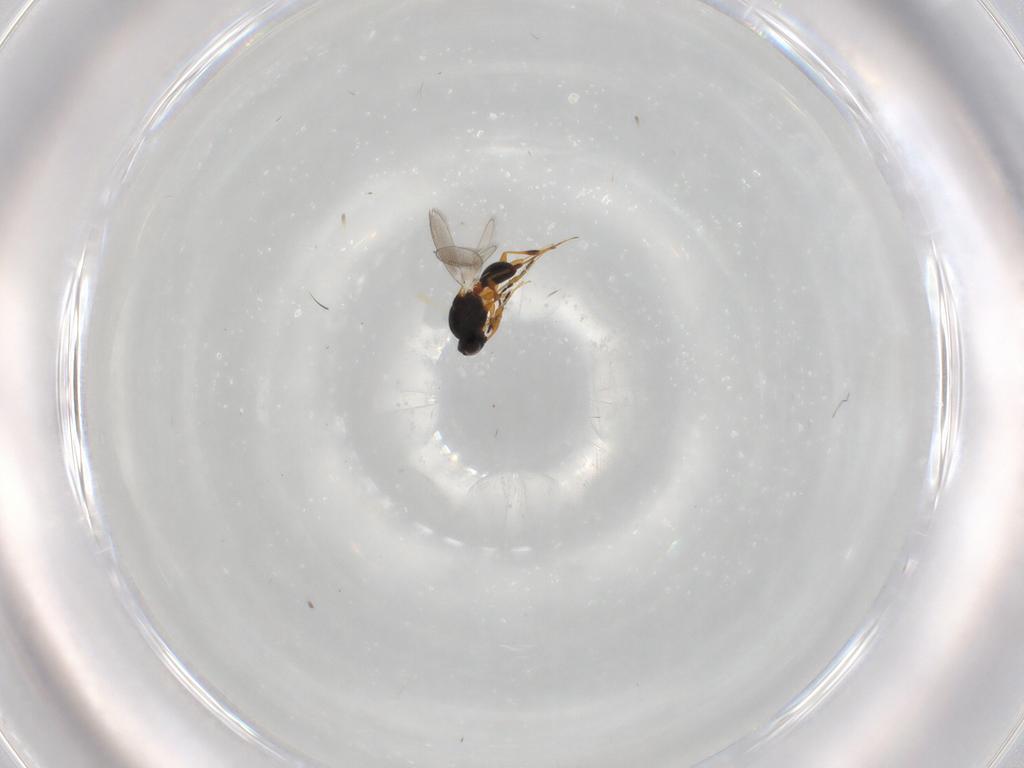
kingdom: Animalia
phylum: Arthropoda
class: Insecta
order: Hymenoptera
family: Platygastridae
